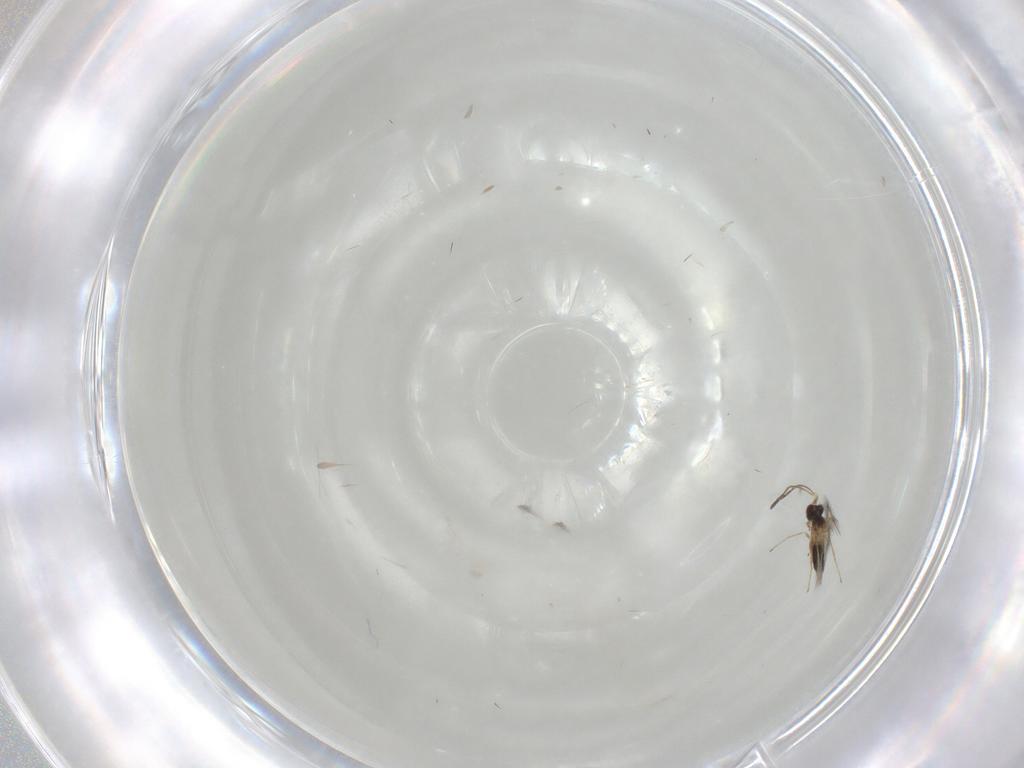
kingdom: Animalia
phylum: Arthropoda
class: Insecta
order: Hymenoptera
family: Mymaridae
